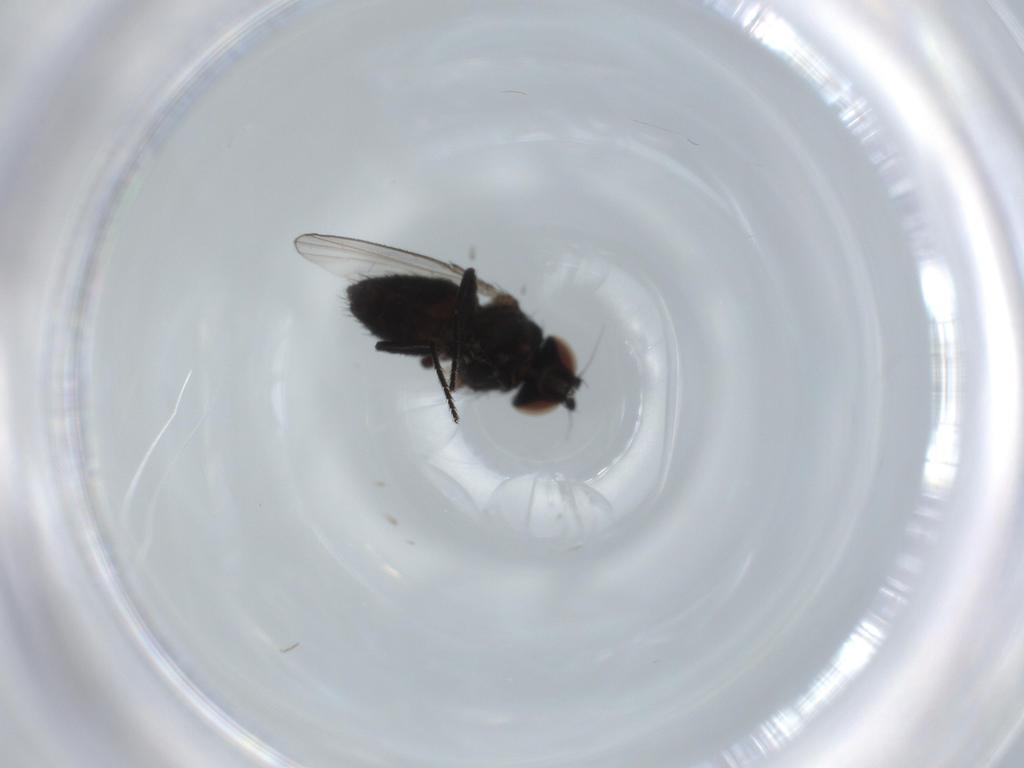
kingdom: Animalia
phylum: Arthropoda
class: Insecta
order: Diptera
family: Phoridae
